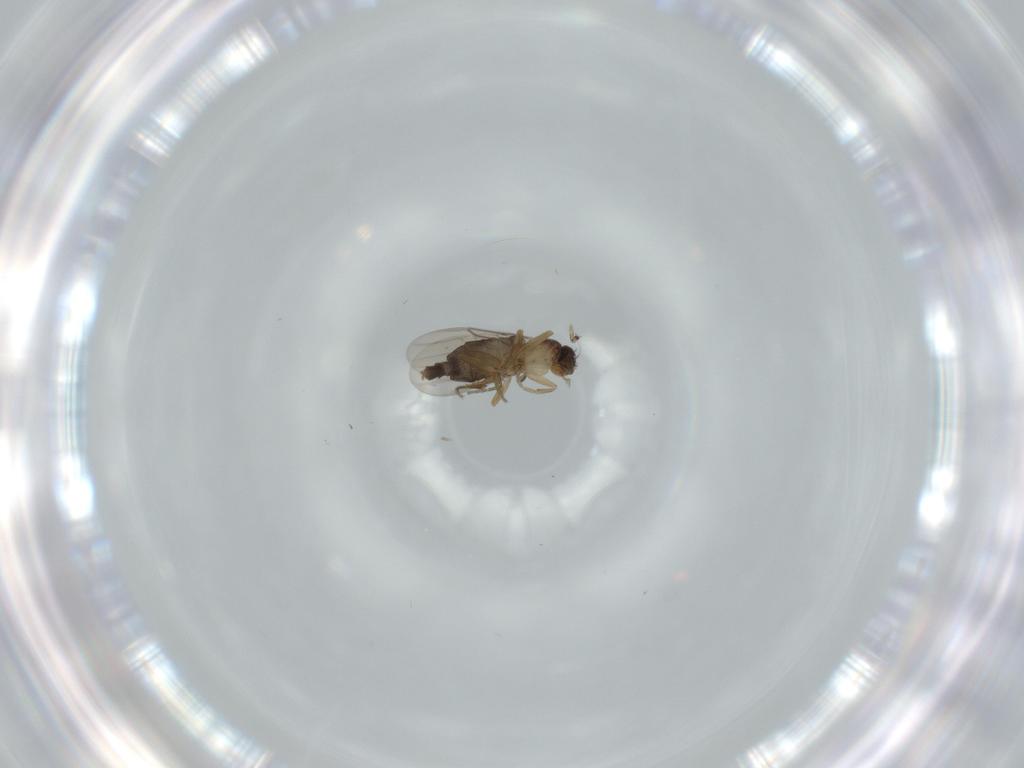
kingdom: Animalia
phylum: Arthropoda
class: Insecta
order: Diptera
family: Phoridae
